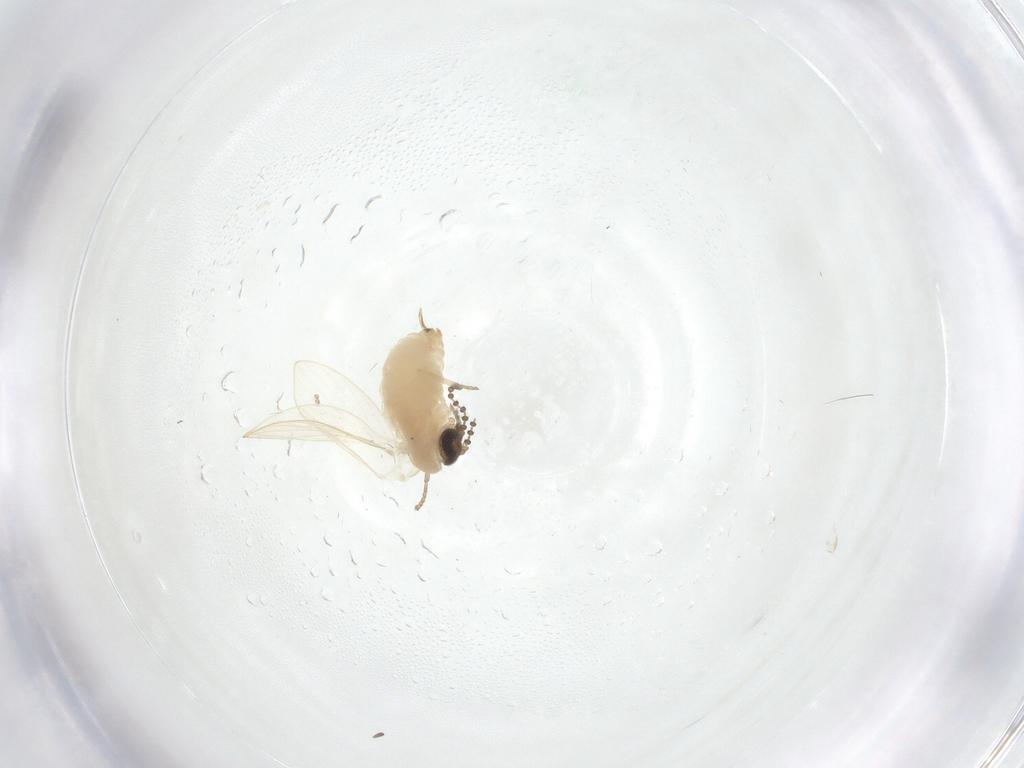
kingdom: Animalia
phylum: Arthropoda
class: Insecta
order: Diptera
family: Psychodidae
